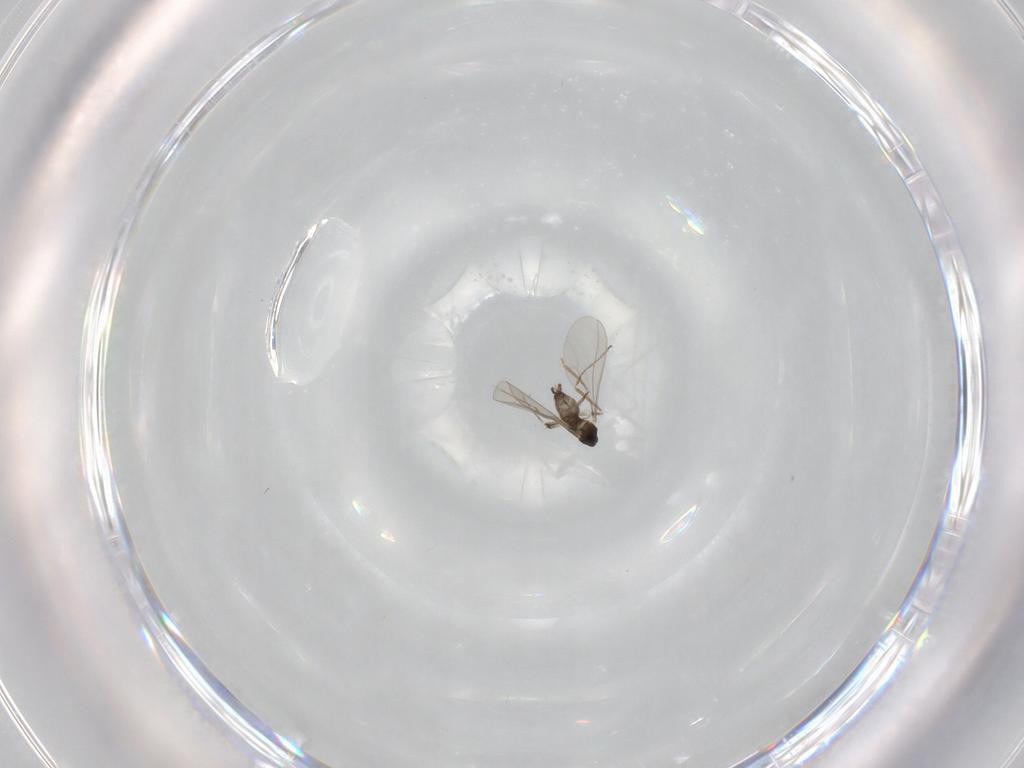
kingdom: Animalia
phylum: Arthropoda
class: Insecta
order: Diptera
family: Cecidomyiidae
